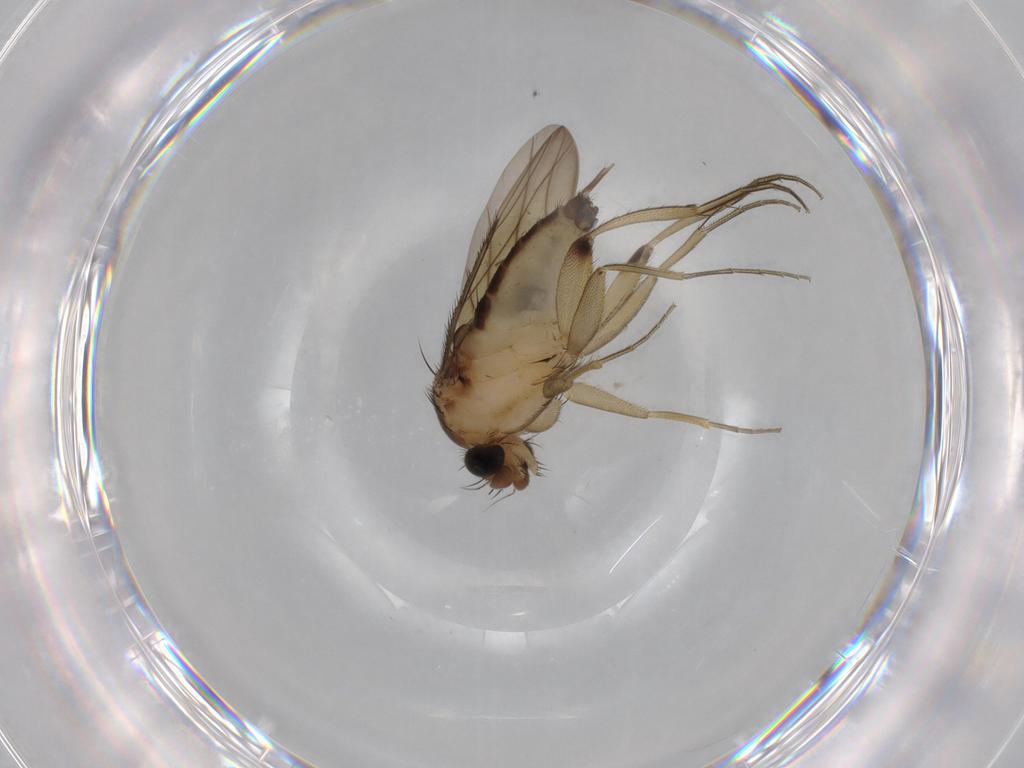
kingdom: Animalia
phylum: Arthropoda
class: Insecta
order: Diptera
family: Phoridae
